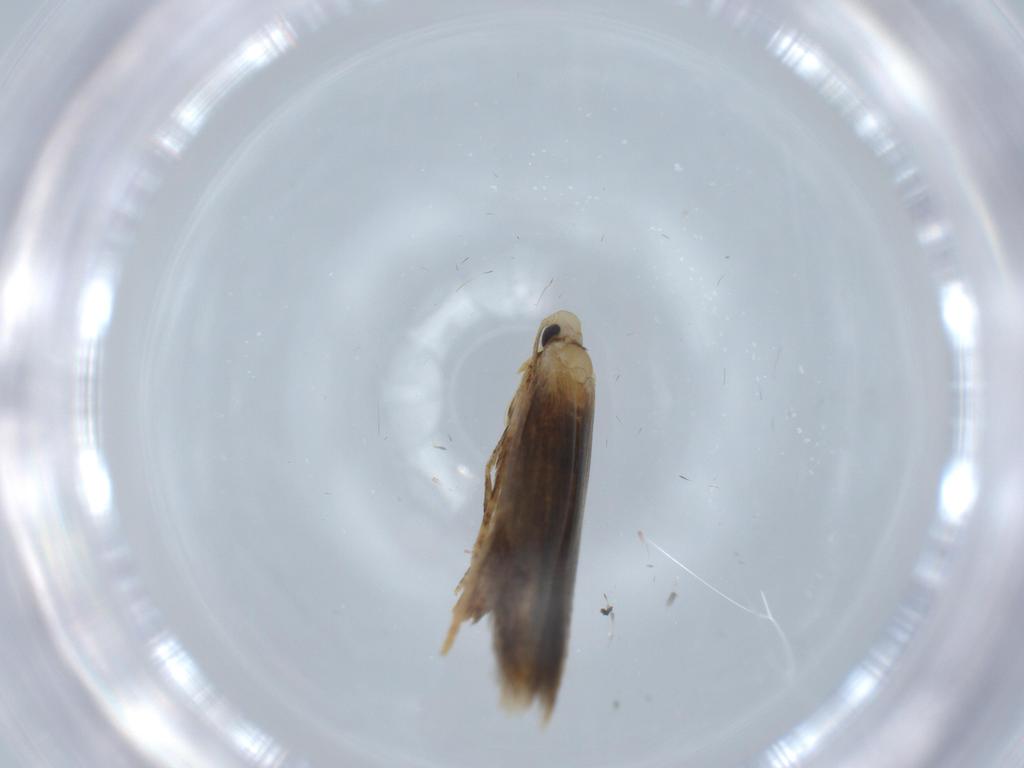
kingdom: Animalia
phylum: Arthropoda
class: Insecta
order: Lepidoptera
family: Tischeriidae
